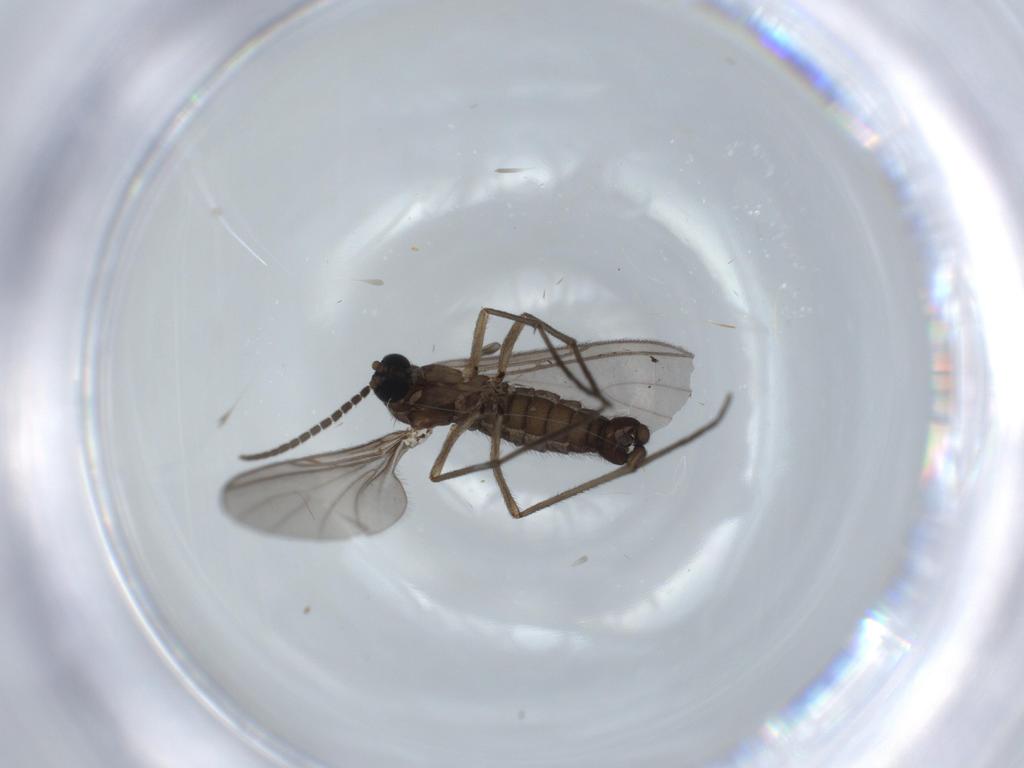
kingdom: Animalia
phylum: Arthropoda
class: Insecta
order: Diptera
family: Sciaridae
